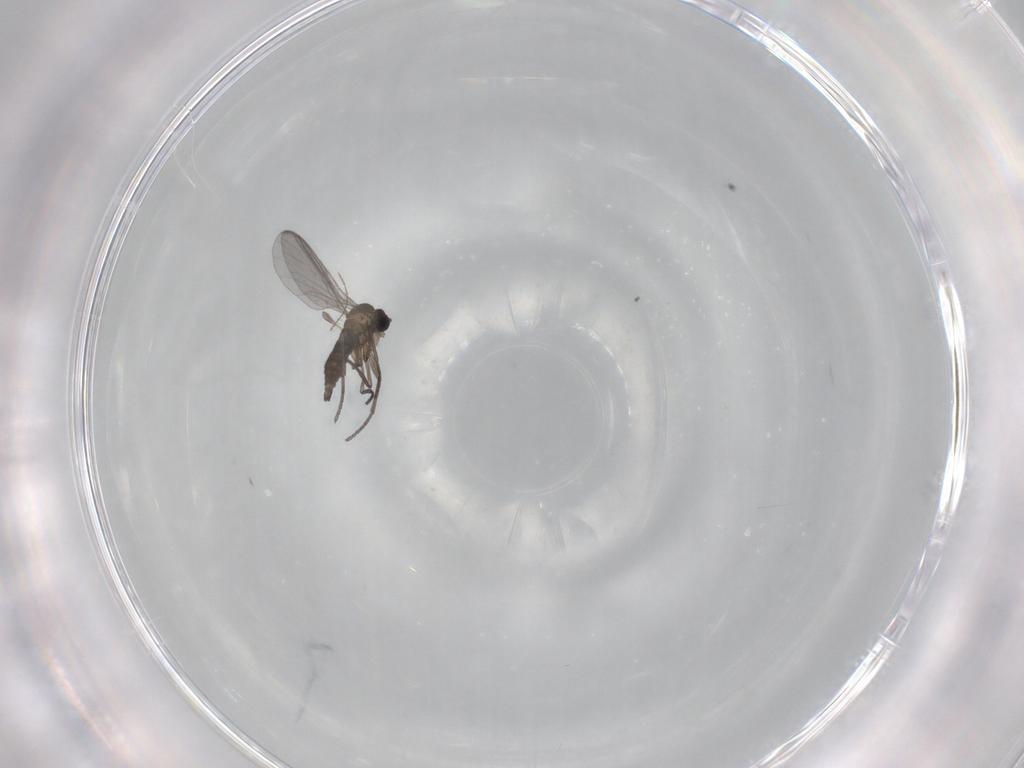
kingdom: Animalia
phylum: Arthropoda
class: Insecta
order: Diptera
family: Ceratopogonidae
